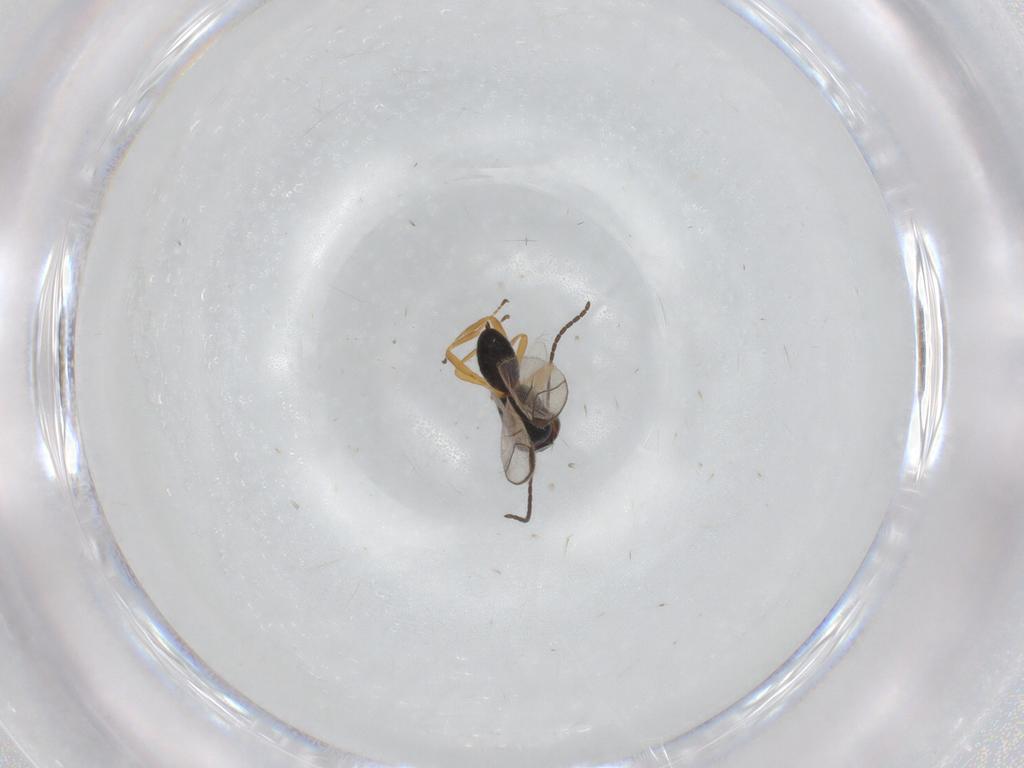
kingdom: Animalia
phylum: Arthropoda
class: Insecta
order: Hymenoptera
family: Braconidae
